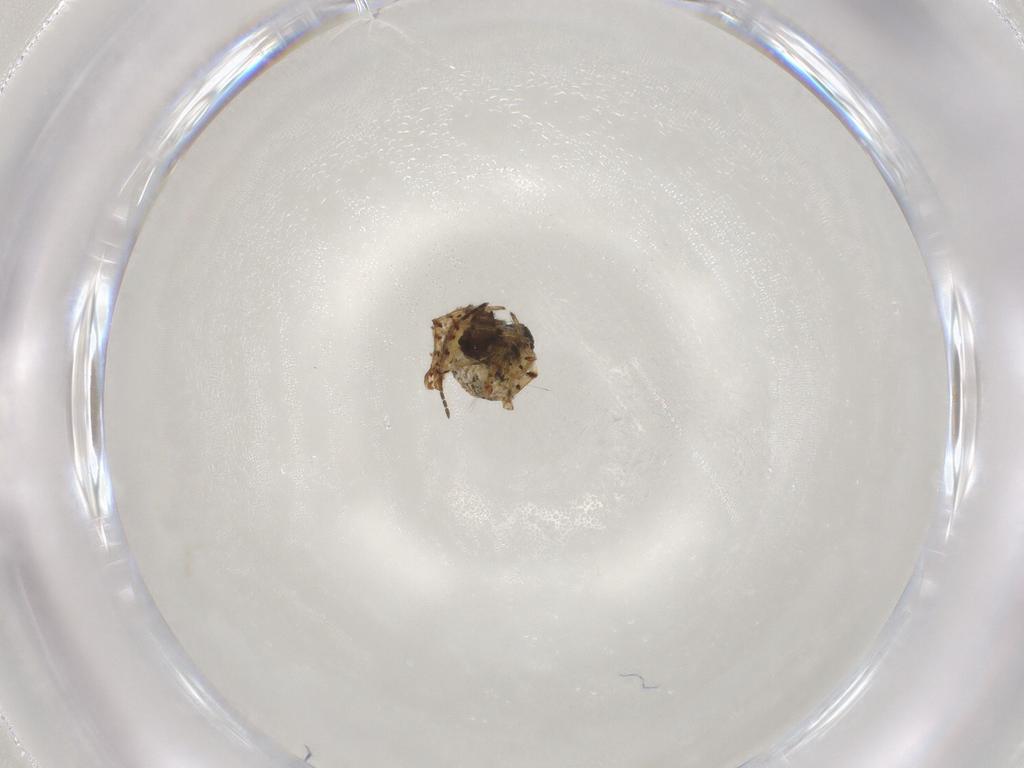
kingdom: Animalia
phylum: Arthropoda
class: Arachnida
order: Araneae
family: Theridiidae
